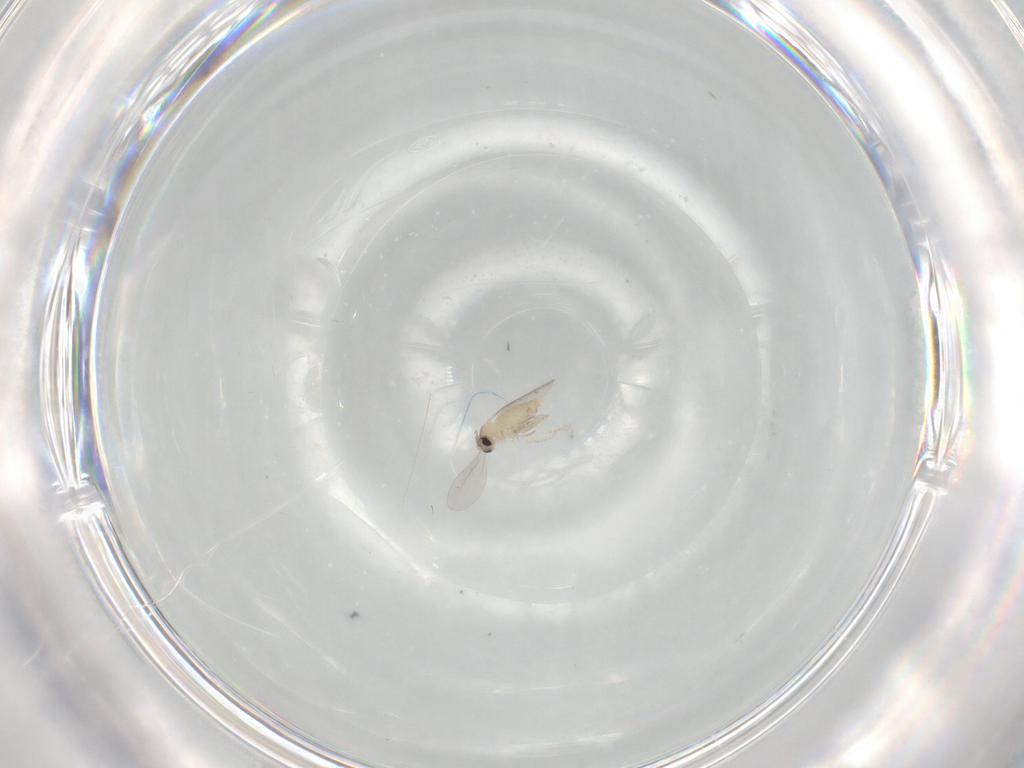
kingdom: Animalia
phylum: Arthropoda
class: Insecta
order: Diptera
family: Cecidomyiidae
